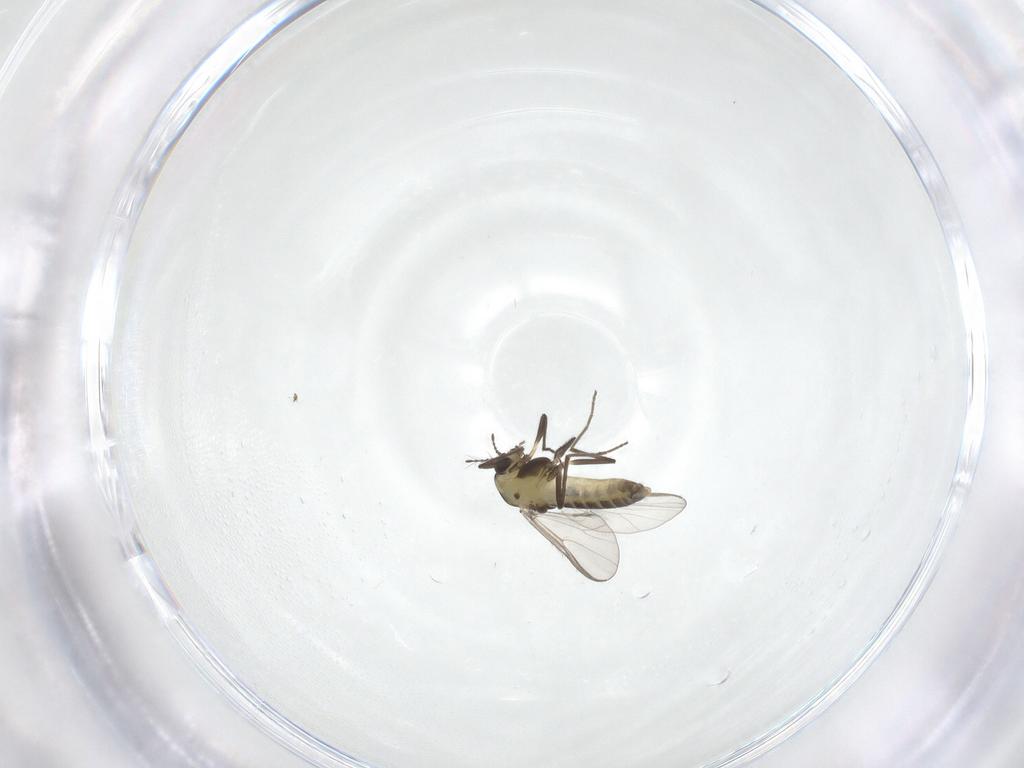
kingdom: Animalia
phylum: Arthropoda
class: Insecta
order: Diptera
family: Chironomidae
